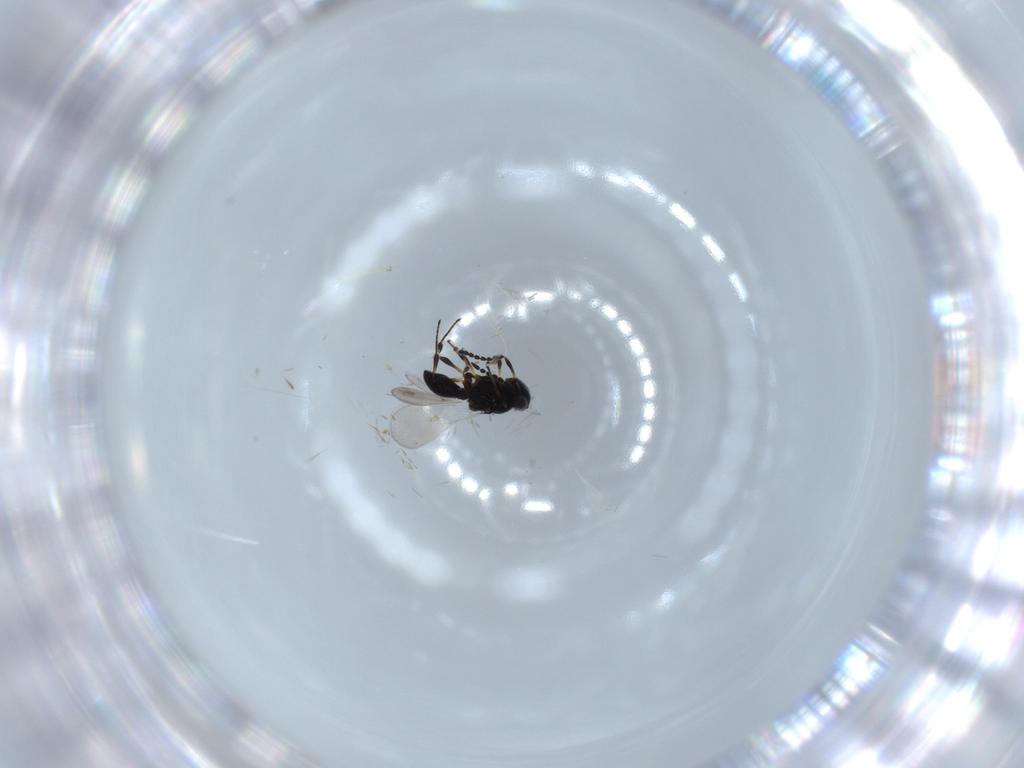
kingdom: Animalia
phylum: Arthropoda
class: Insecta
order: Hymenoptera
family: Platygastridae
